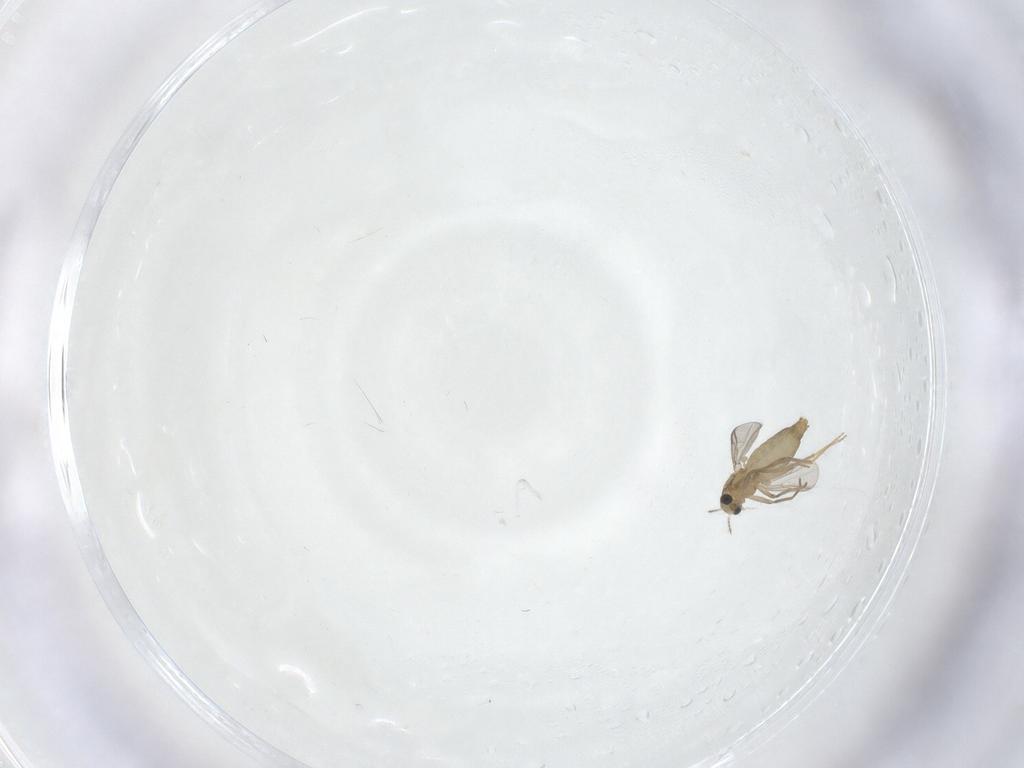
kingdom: Animalia
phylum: Arthropoda
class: Insecta
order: Diptera
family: Chironomidae
